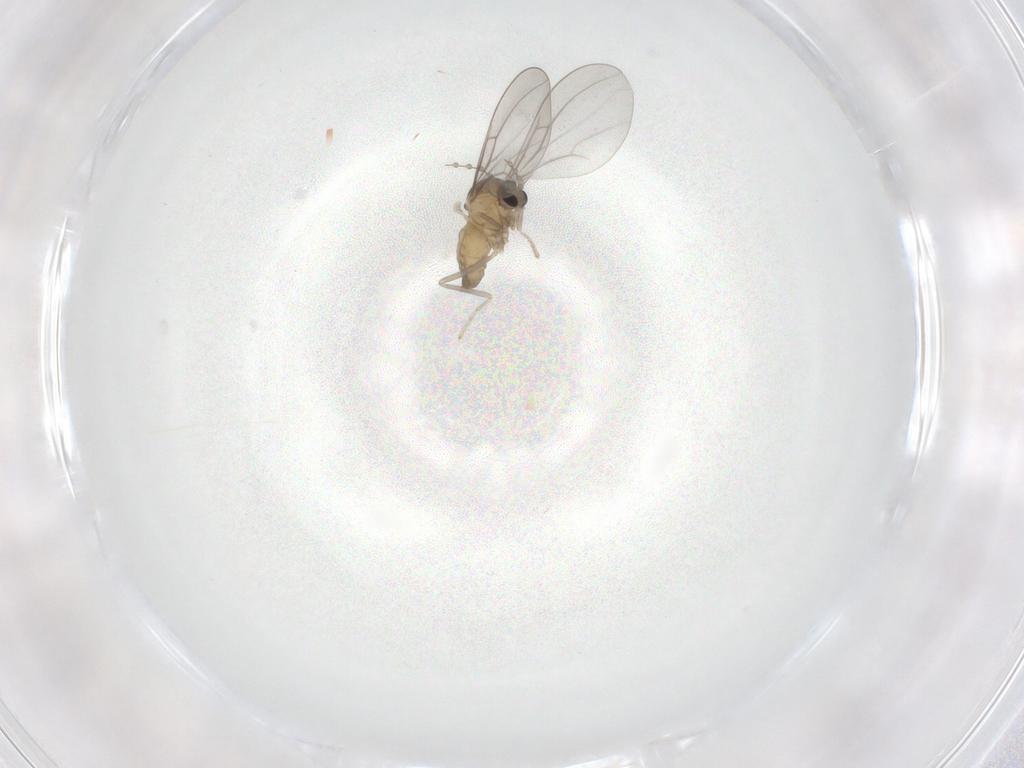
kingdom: Animalia
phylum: Arthropoda
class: Insecta
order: Diptera
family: Cecidomyiidae
